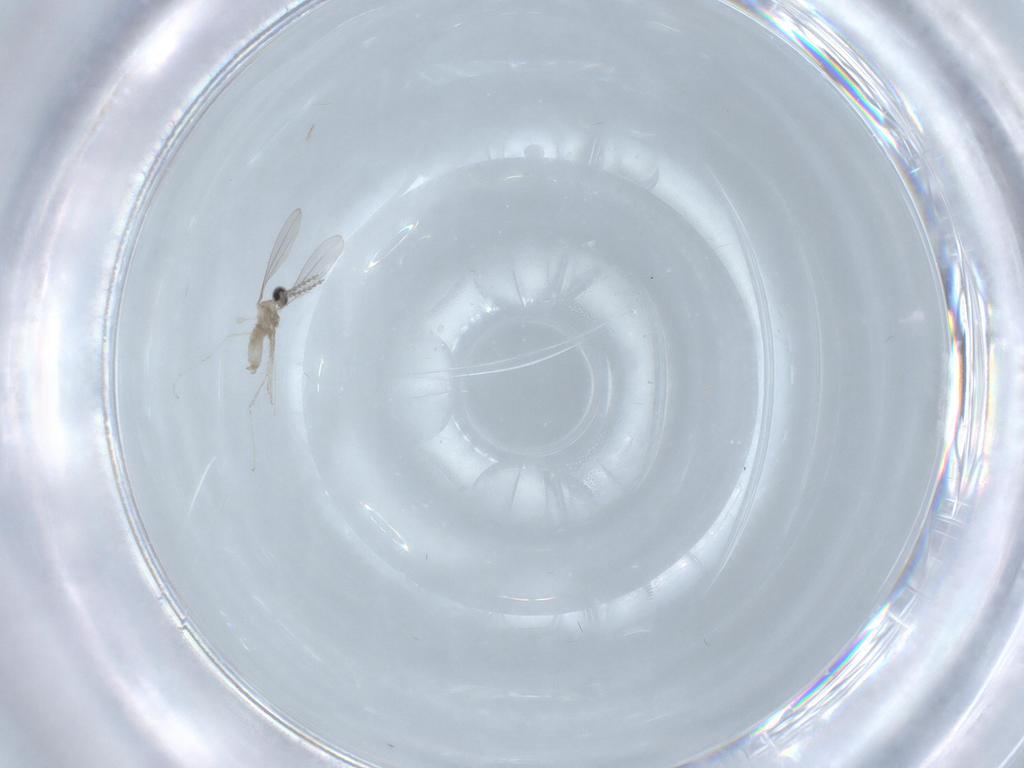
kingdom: Animalia
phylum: Arthropoda
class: Insecta
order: Diptera
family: Cecidomyiidae
